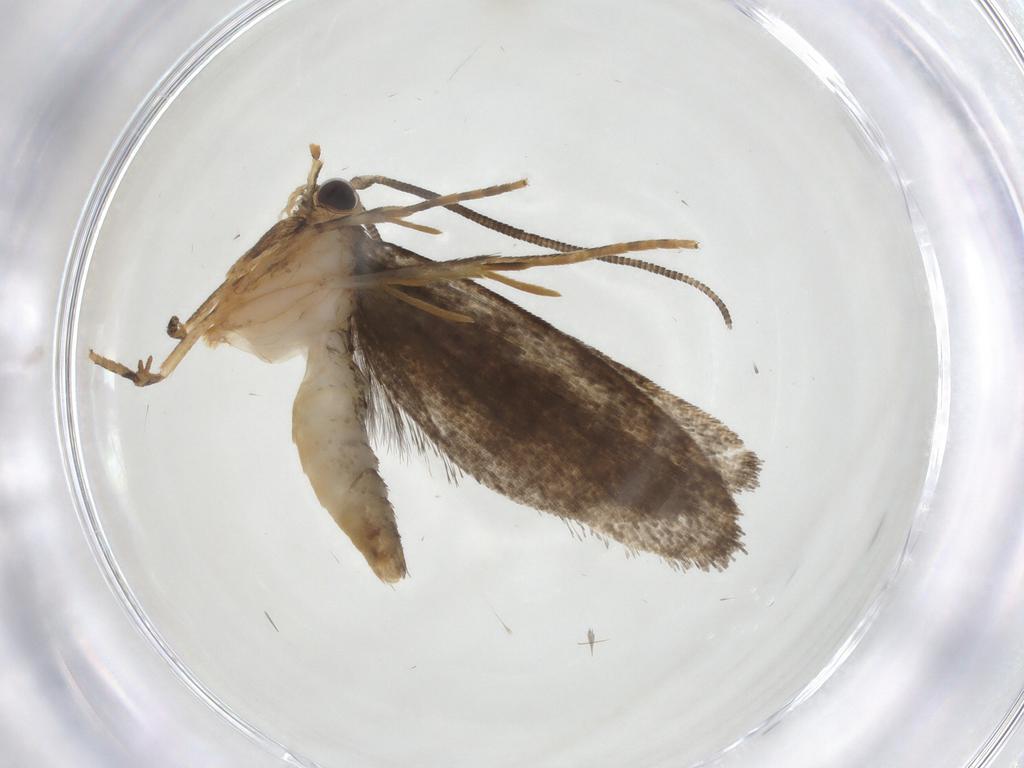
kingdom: Animalia
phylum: Arthropoda
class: Insecta
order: Lepidoptera
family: Tineidae
